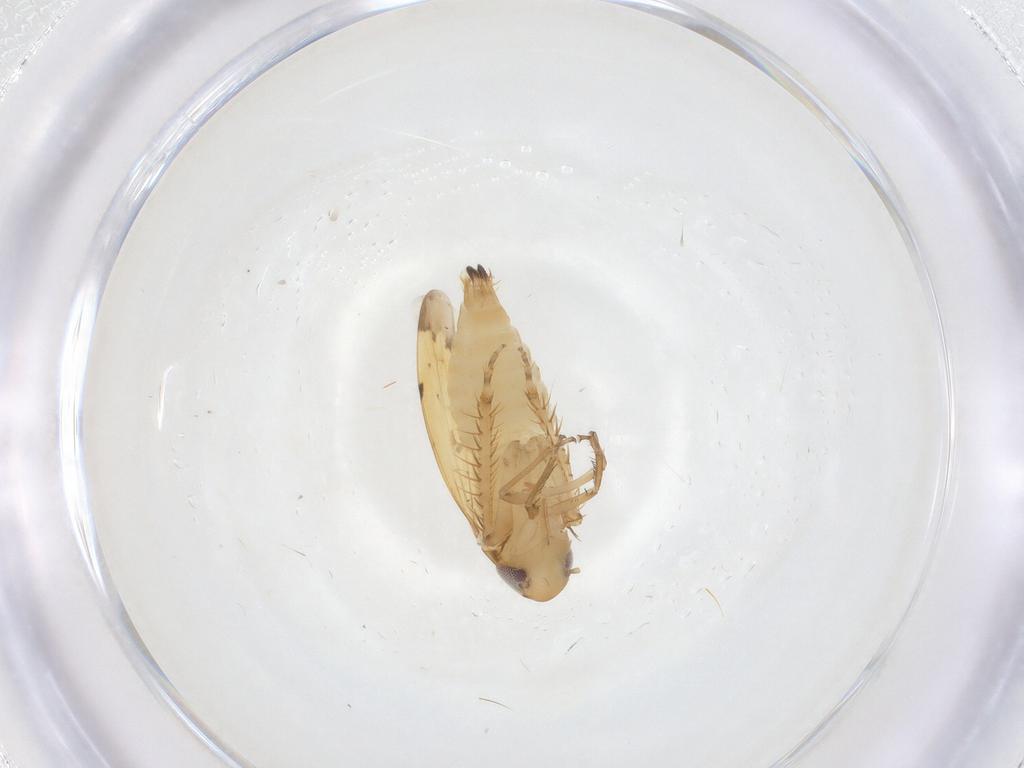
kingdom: Animalia
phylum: Arthropoda
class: Insecta
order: Hemiptera
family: Cicadellidae
